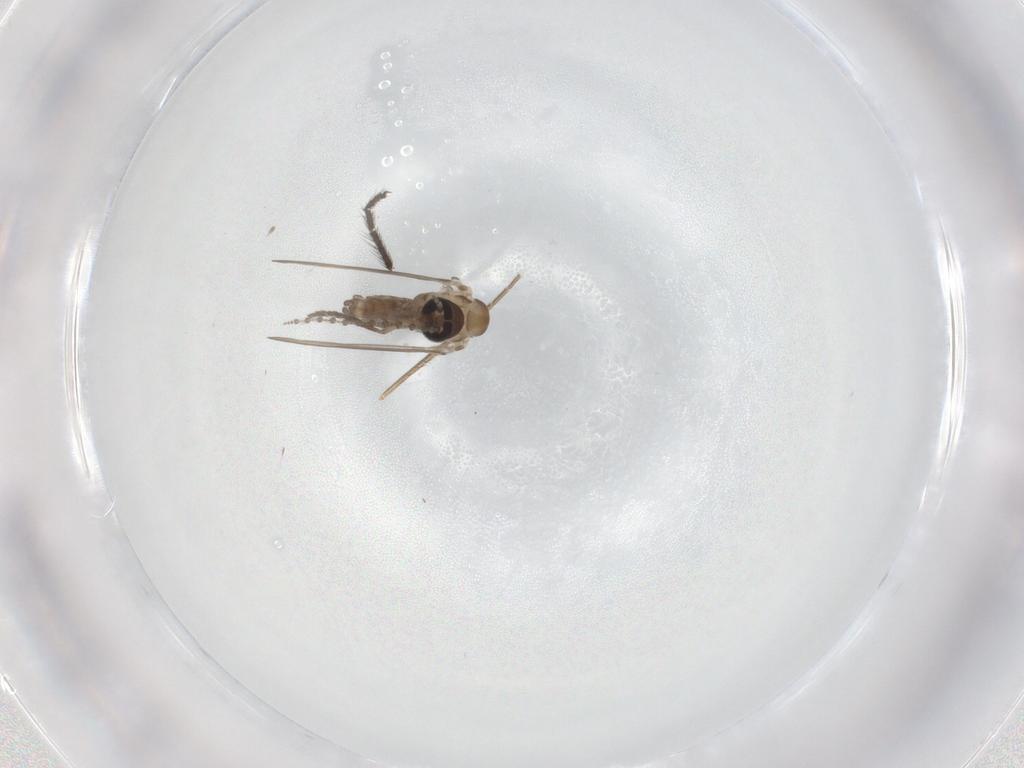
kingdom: Animalia
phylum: Arthropoda
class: Insecta
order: Diptera
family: Psychodidae
